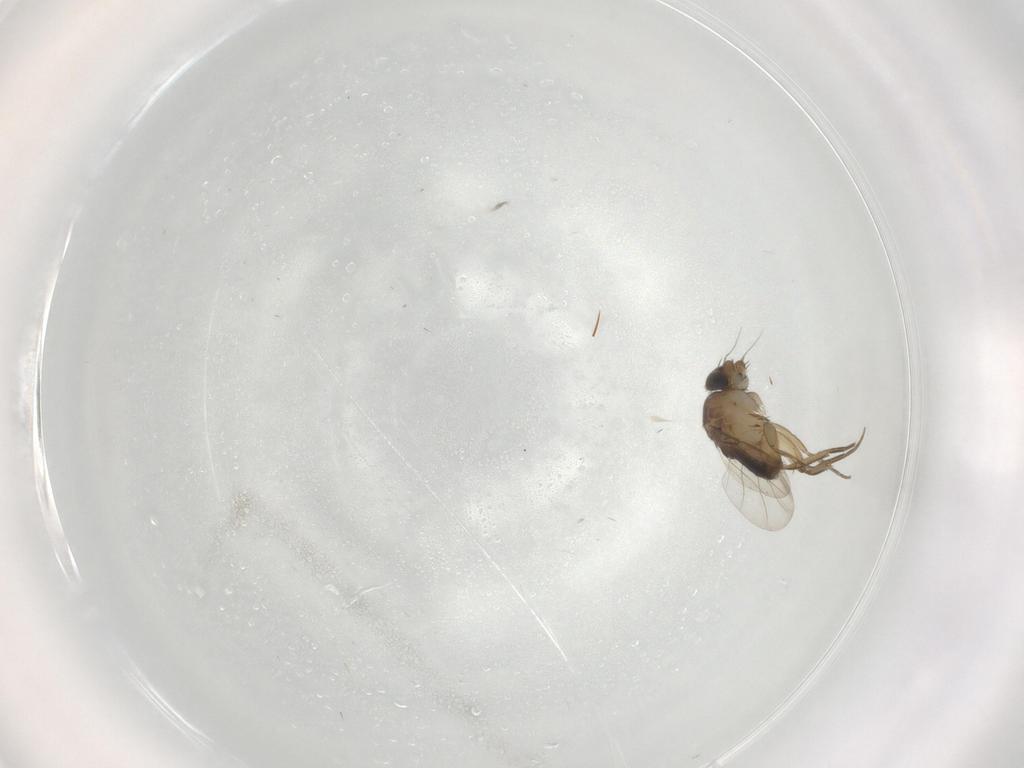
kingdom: Animalia
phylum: Arthropoda
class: Insecta
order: Diptera
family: Phoridae
